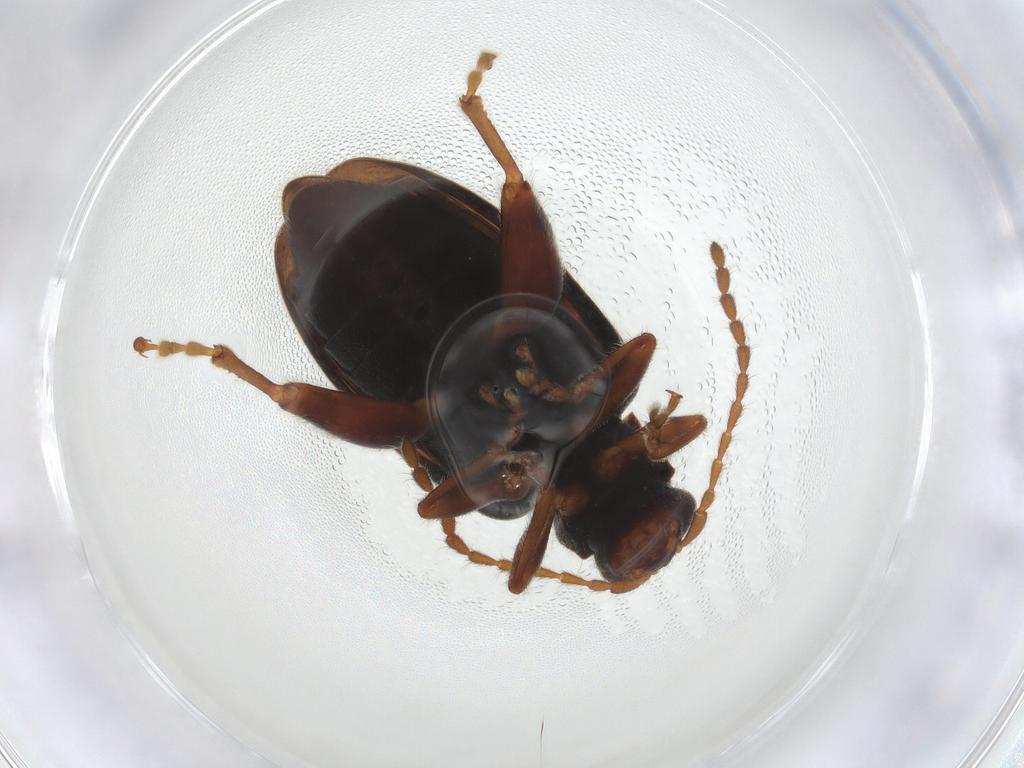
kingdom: Animalia
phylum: Arthropoda
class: Insecta
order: Coleoptera
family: Chrysomelidae
